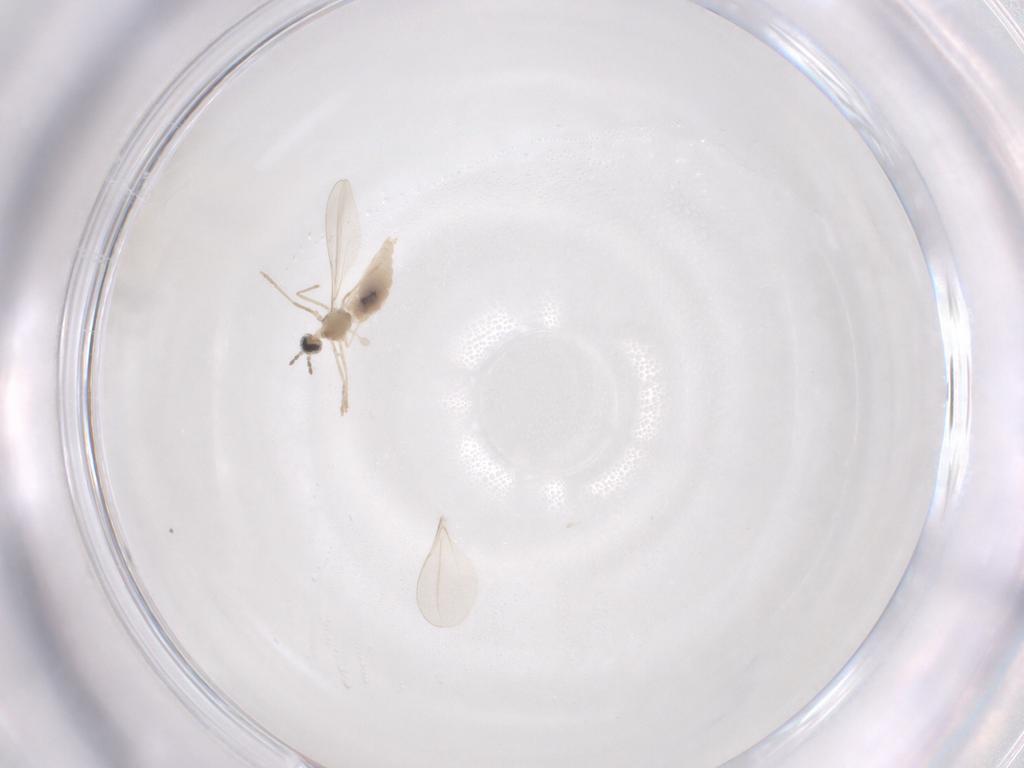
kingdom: Animalia
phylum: Arthropoda
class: Insecta
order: Diptera
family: Cecidomyiidae
